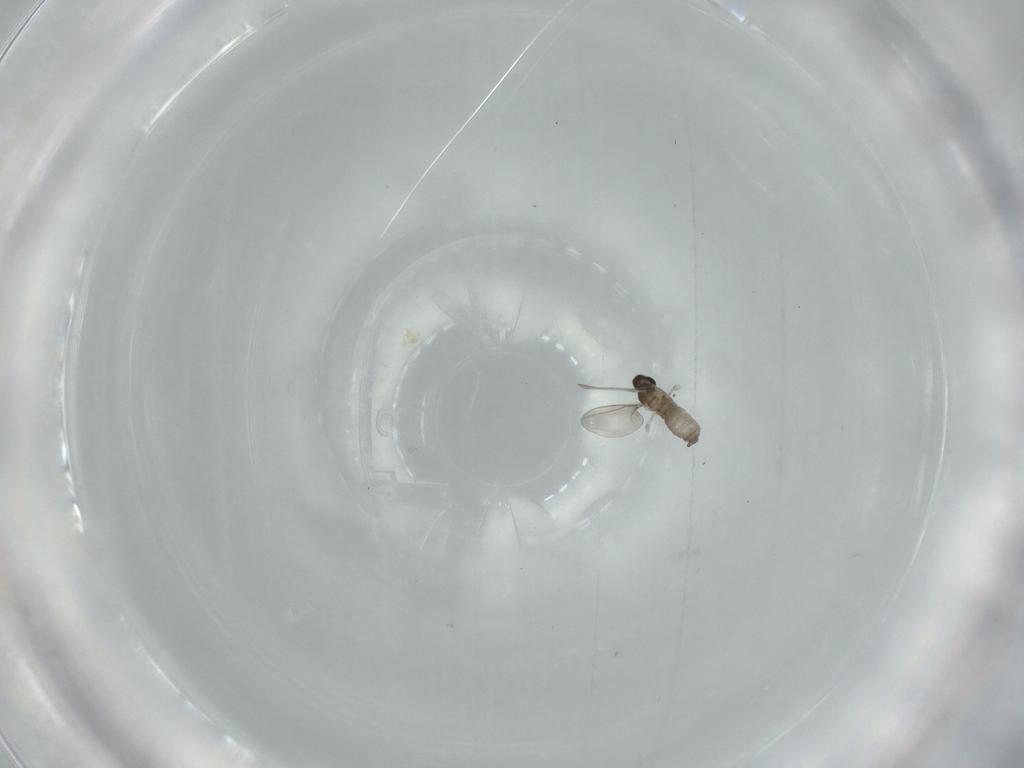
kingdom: Animalia
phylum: Arthropoda
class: Insecta
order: Diptera
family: Cecidomyiidae
